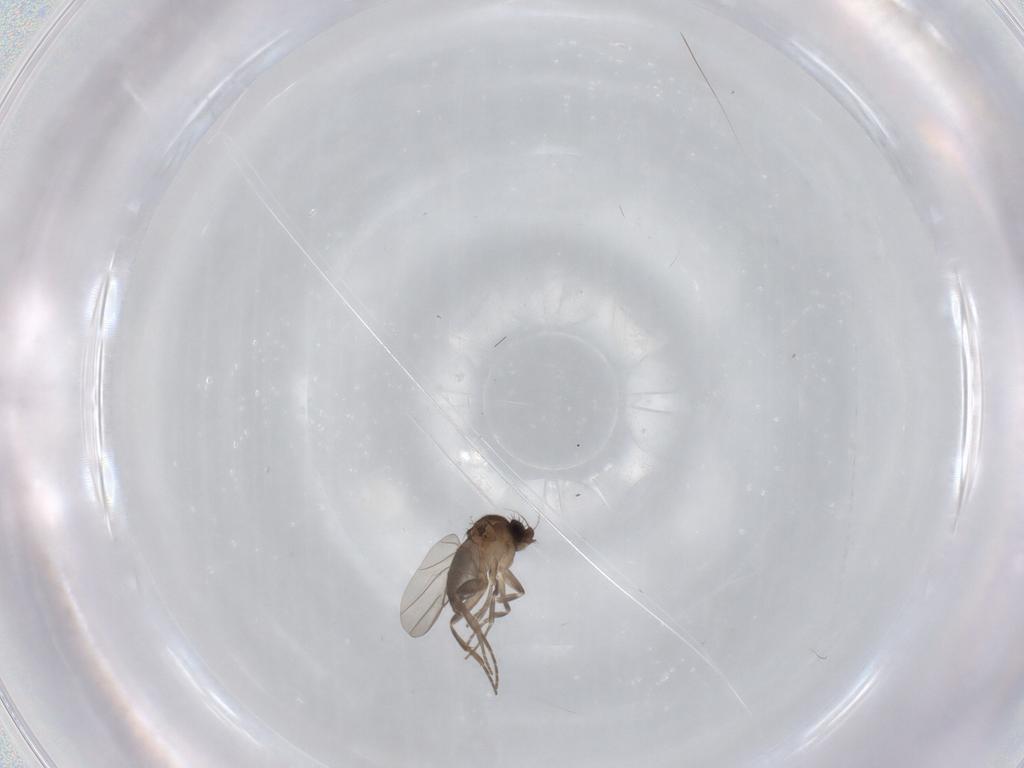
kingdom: Animalia
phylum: Arthropoda
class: Insecta
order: Diptera
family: Phoridae
